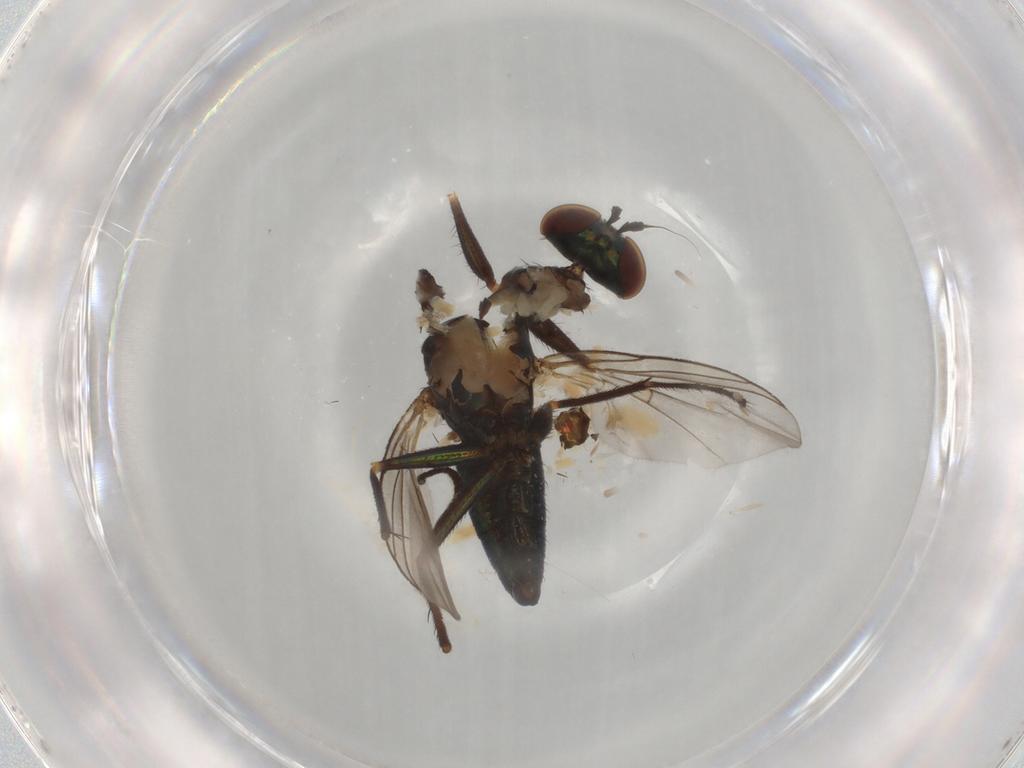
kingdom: Animalia
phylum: Arthropoda
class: Insecta
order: Diptera
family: Dolichopodidae
